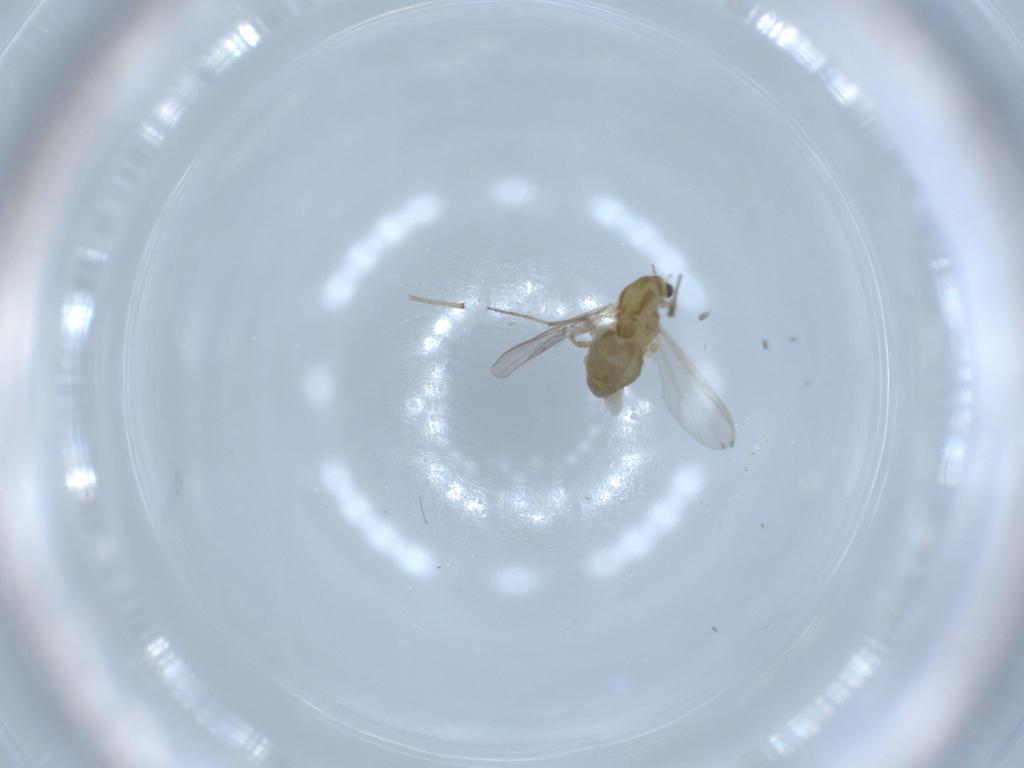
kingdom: Animalia
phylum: Arthropoda
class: Insecta
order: Diptera
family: Chironomidae
